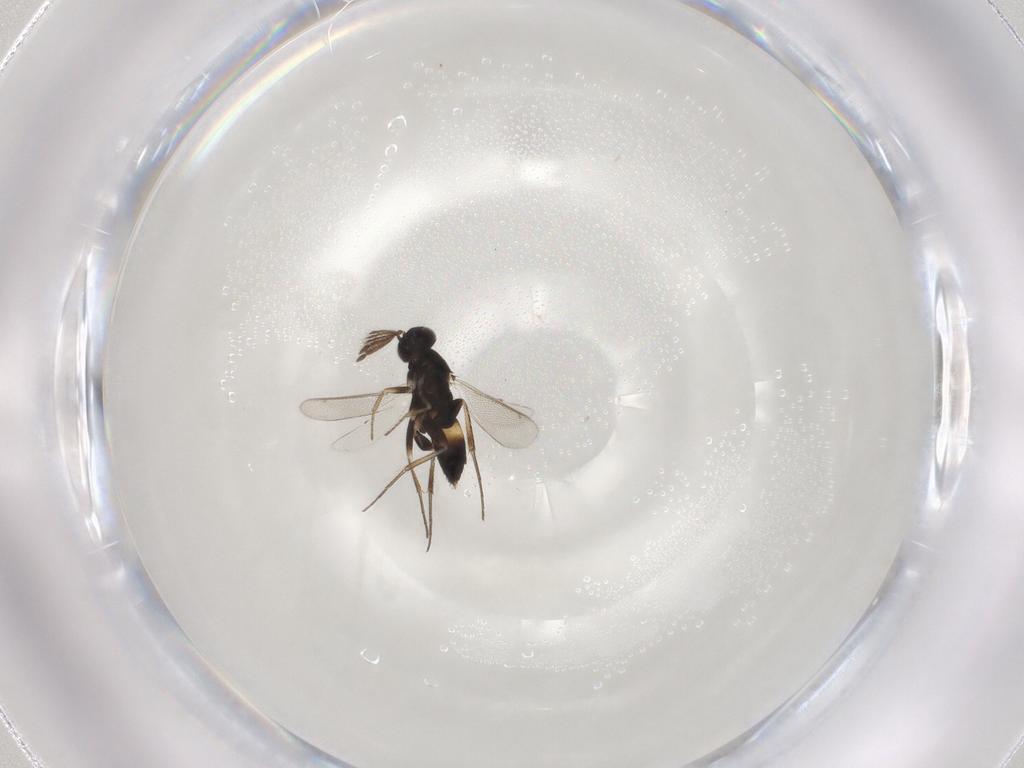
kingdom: Animalia
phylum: Arthropoda
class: Insecta
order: Hymenoptera
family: Eulophidae
